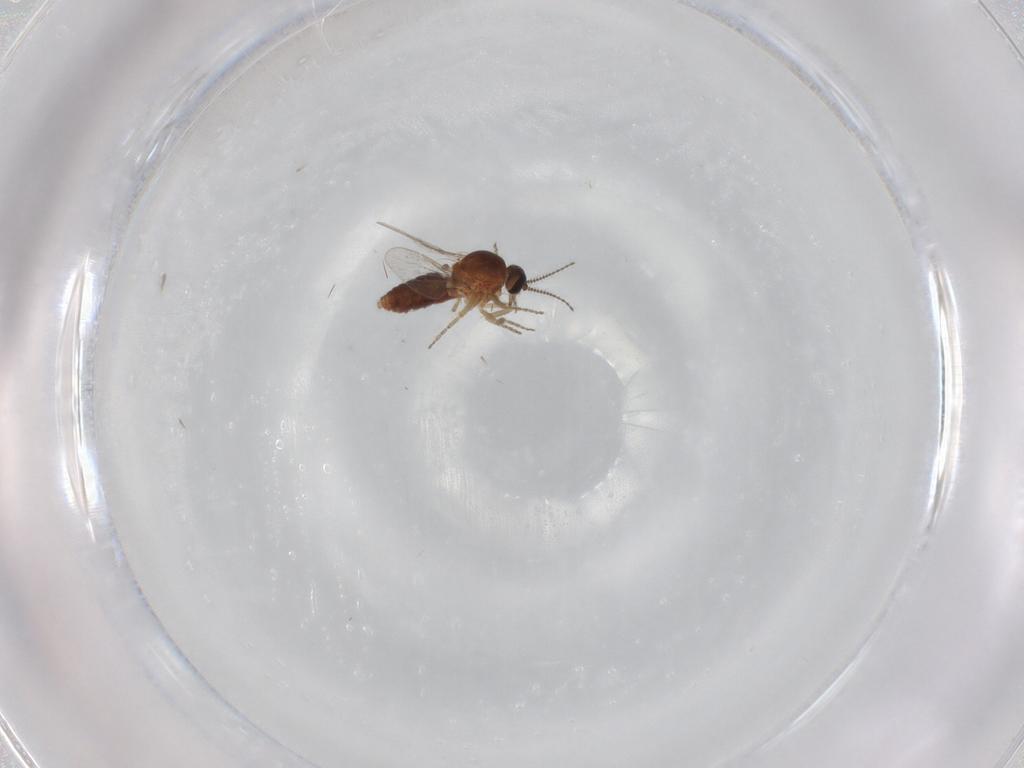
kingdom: Animalia
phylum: Arthropoda
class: Insecta
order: Diptera
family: Ceratopogonidae
